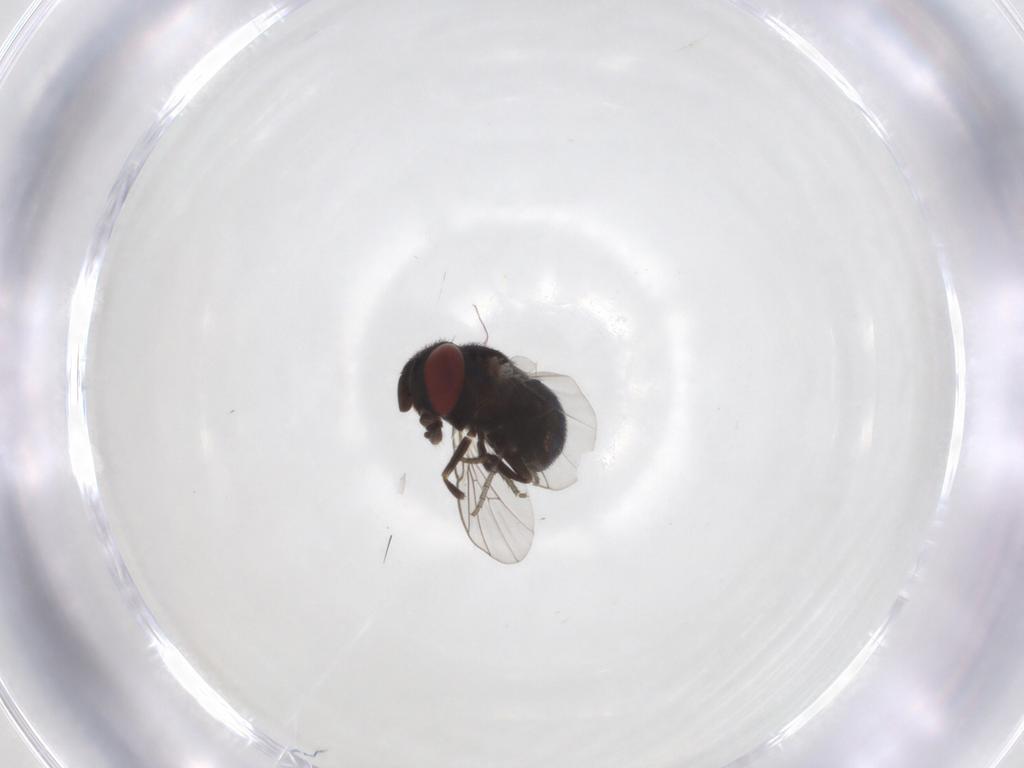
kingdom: Animalia
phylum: Arthropoda
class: Insecta
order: Diptera
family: Cryptochetidae
